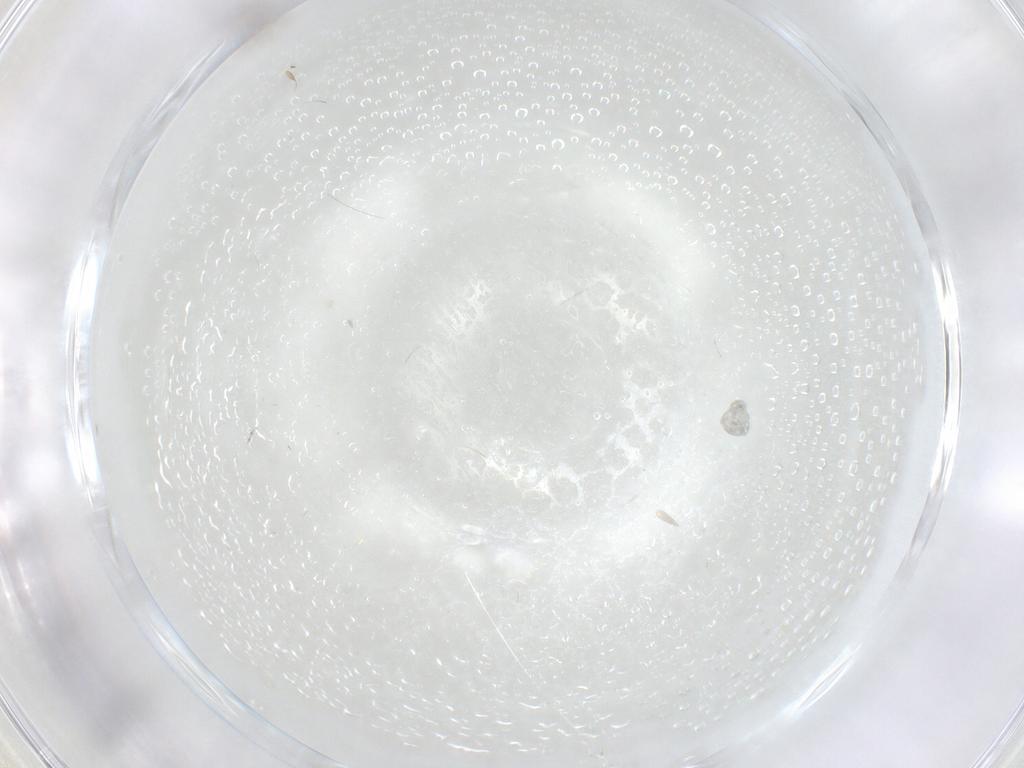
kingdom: Animalia
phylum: Arthropoda
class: Insecta
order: Diptera
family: Cecidomyiidae
